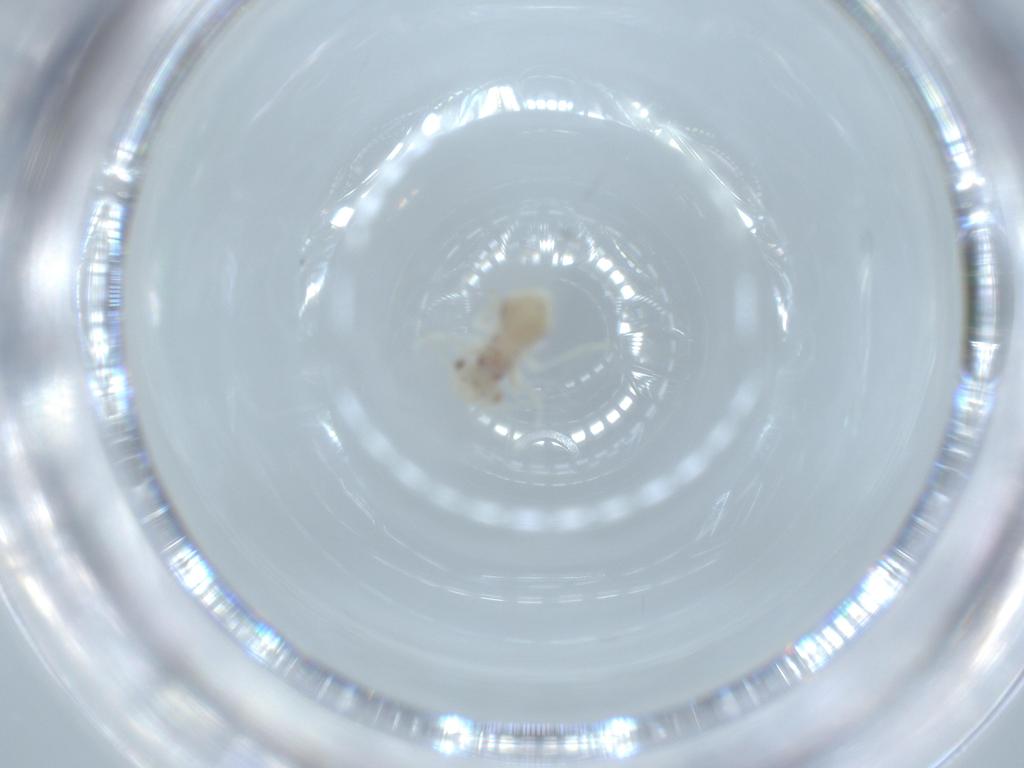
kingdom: Animalia
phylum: Arthropoda
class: Insecta
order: Psocodea
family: Caeciliusidae
